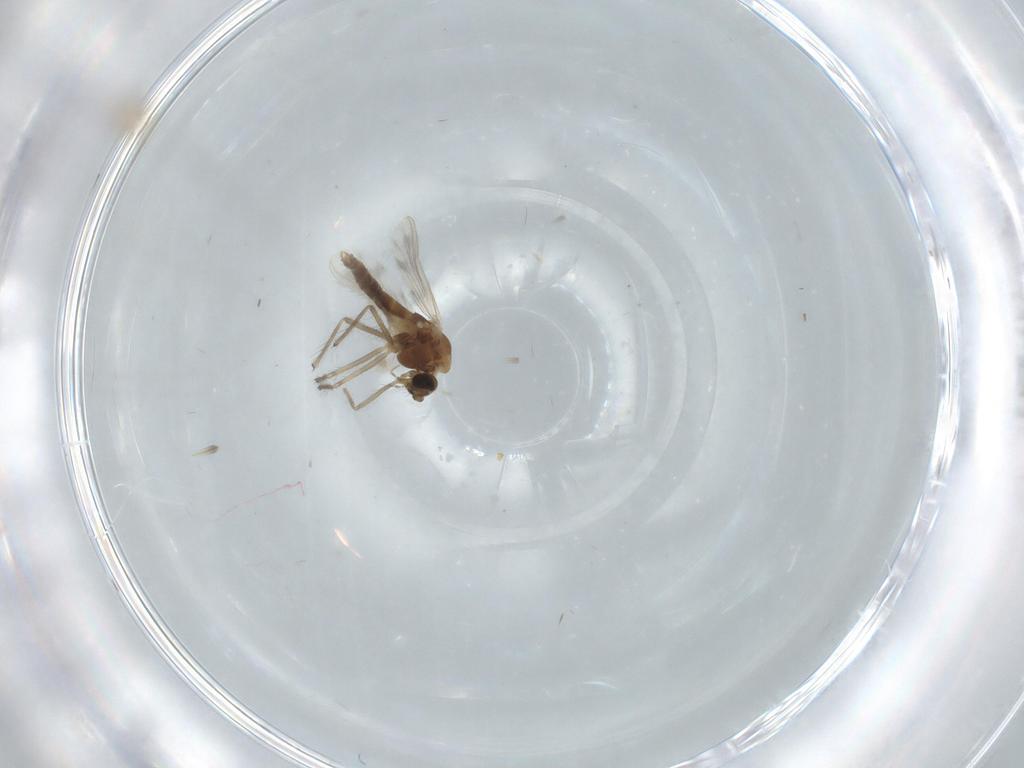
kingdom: Animalia
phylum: Arthropoda
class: Insecta
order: Diptera
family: Chironomidae
